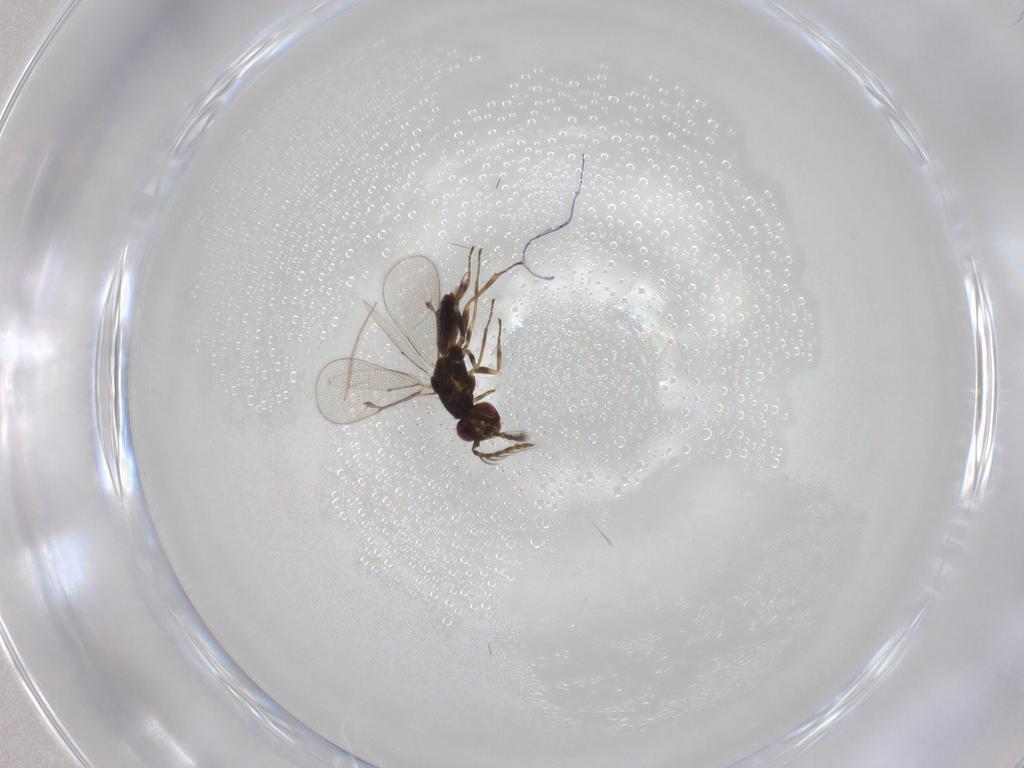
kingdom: Animalia
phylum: Arthropoda
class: Insecta
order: Hymenoptera
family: Eulophidae
